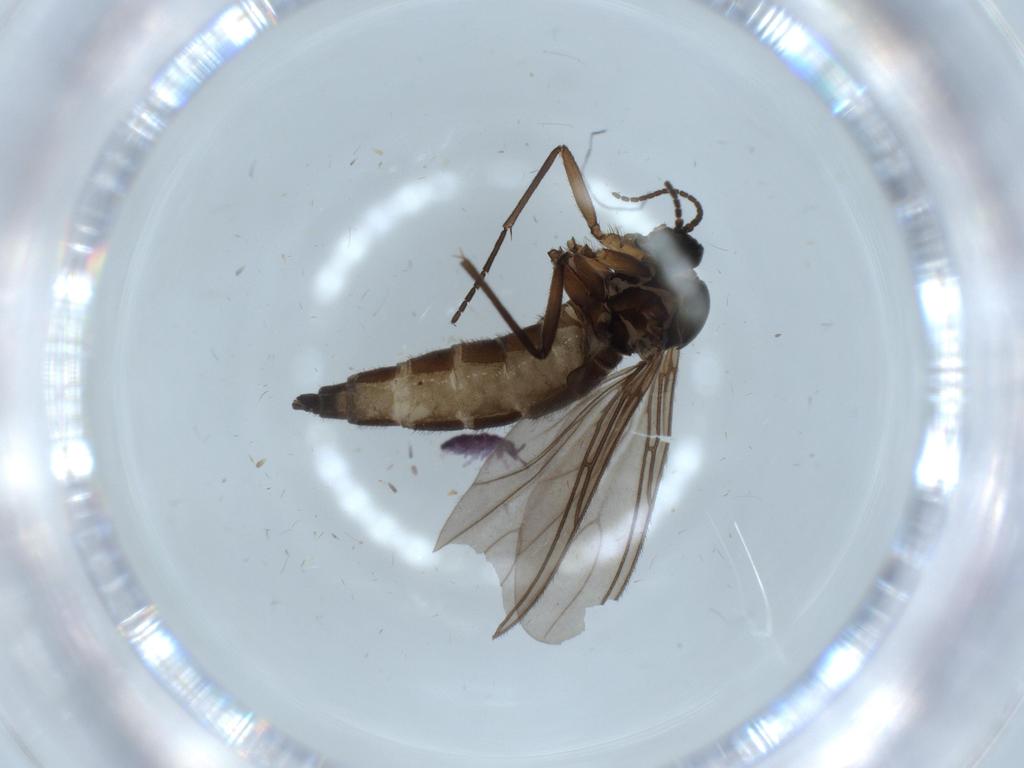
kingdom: Animalia
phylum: Arthropoda
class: Insecta
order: Diptera
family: Sciaridae
